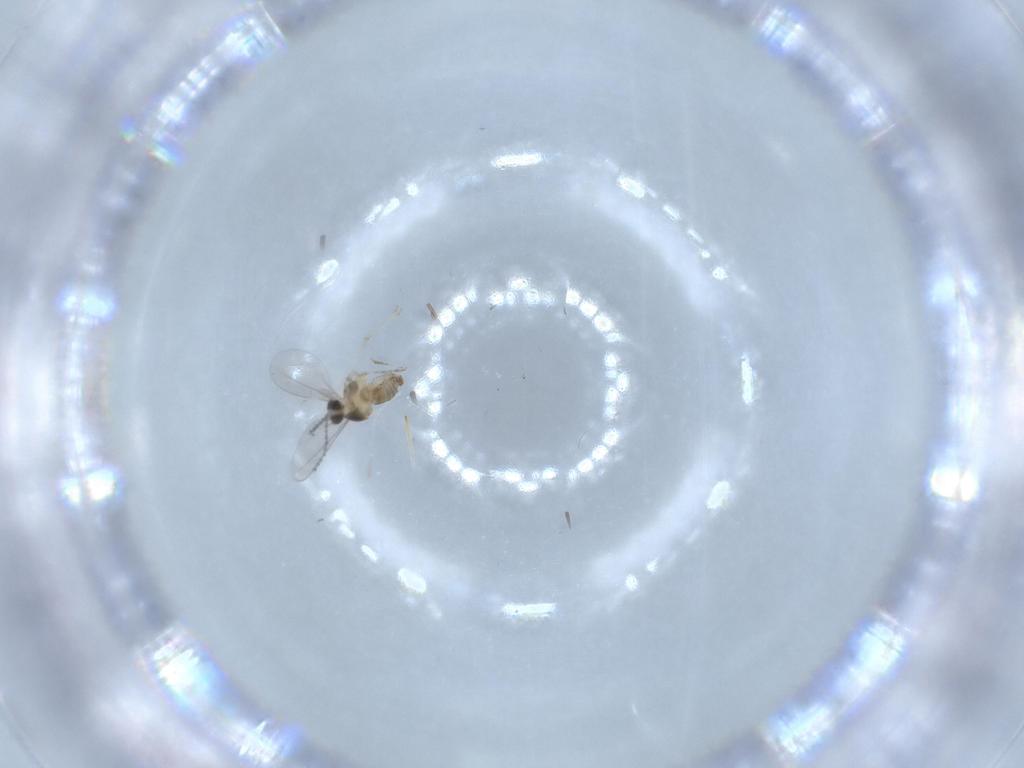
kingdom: Animalia
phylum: Arthropoda
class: Insecta
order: Diptera
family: Cecidomyiidae
